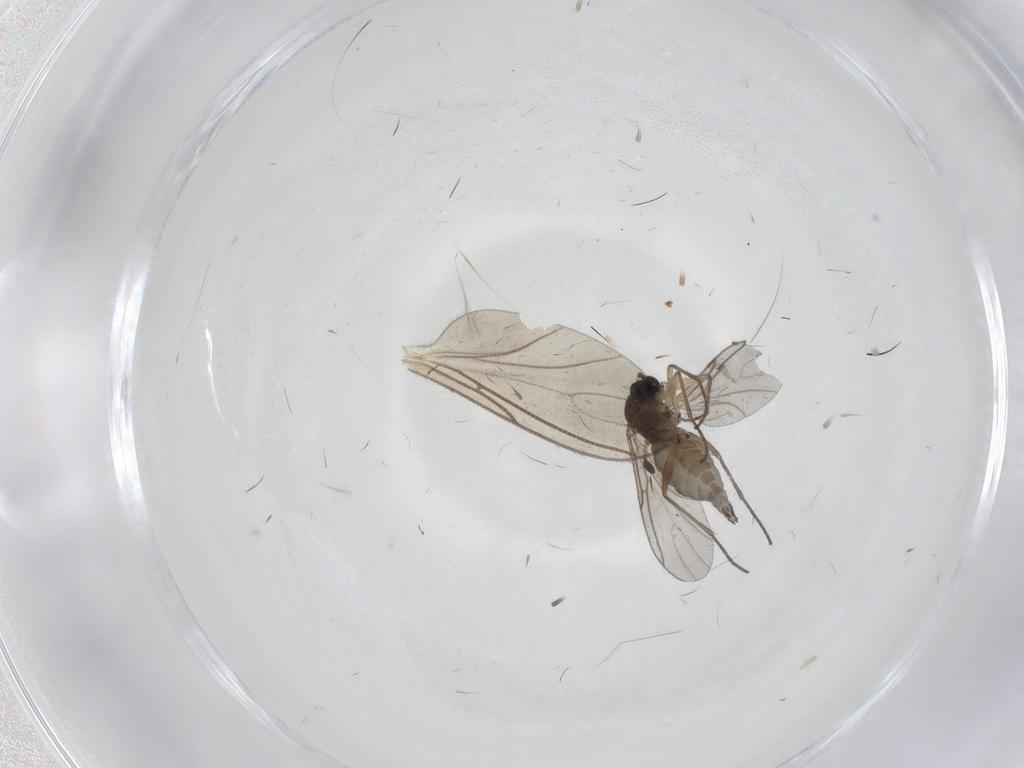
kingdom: Animalia
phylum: Arthropoda
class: Insecta
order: Diptera
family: Sciaridae
